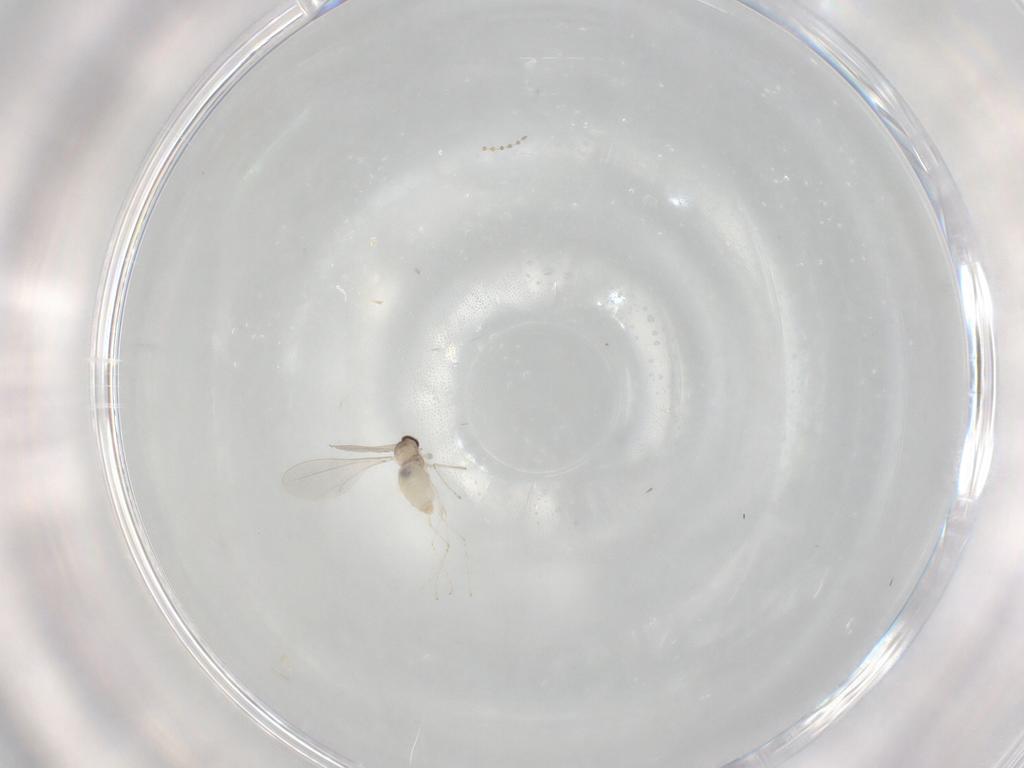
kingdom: Animalia
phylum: Arthropoda
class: Insecta
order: Diptera
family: Cecidomyiidae
